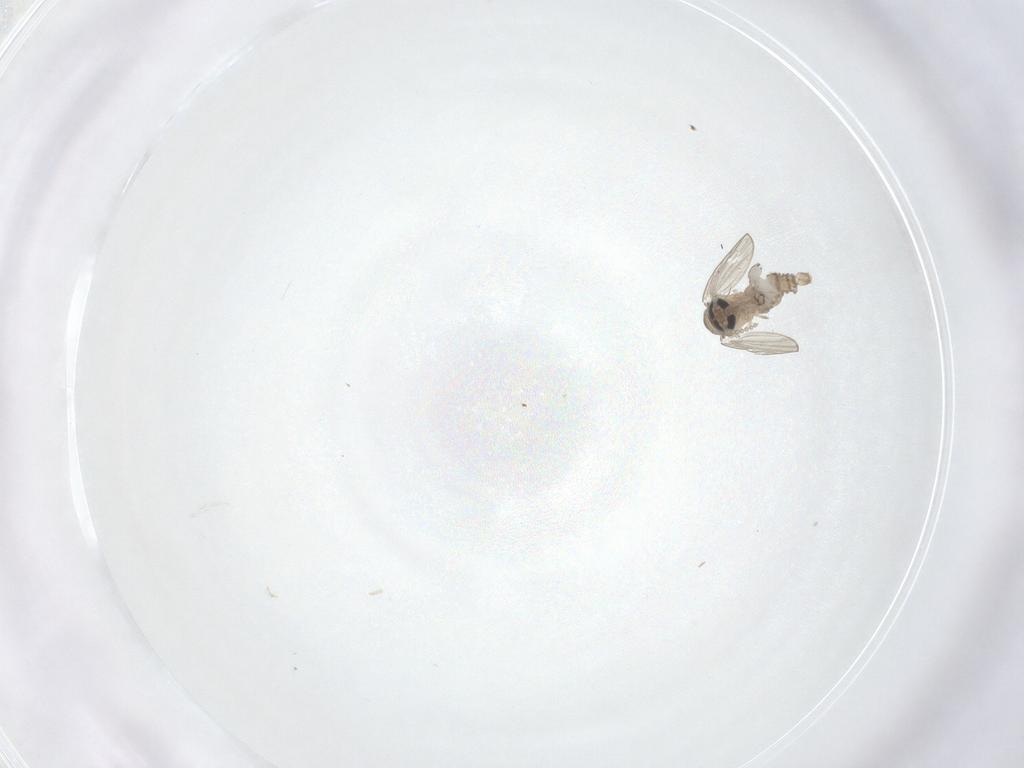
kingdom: Animalia
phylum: Arthropoda
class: Insecta
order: Diptera
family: Psychodidae
